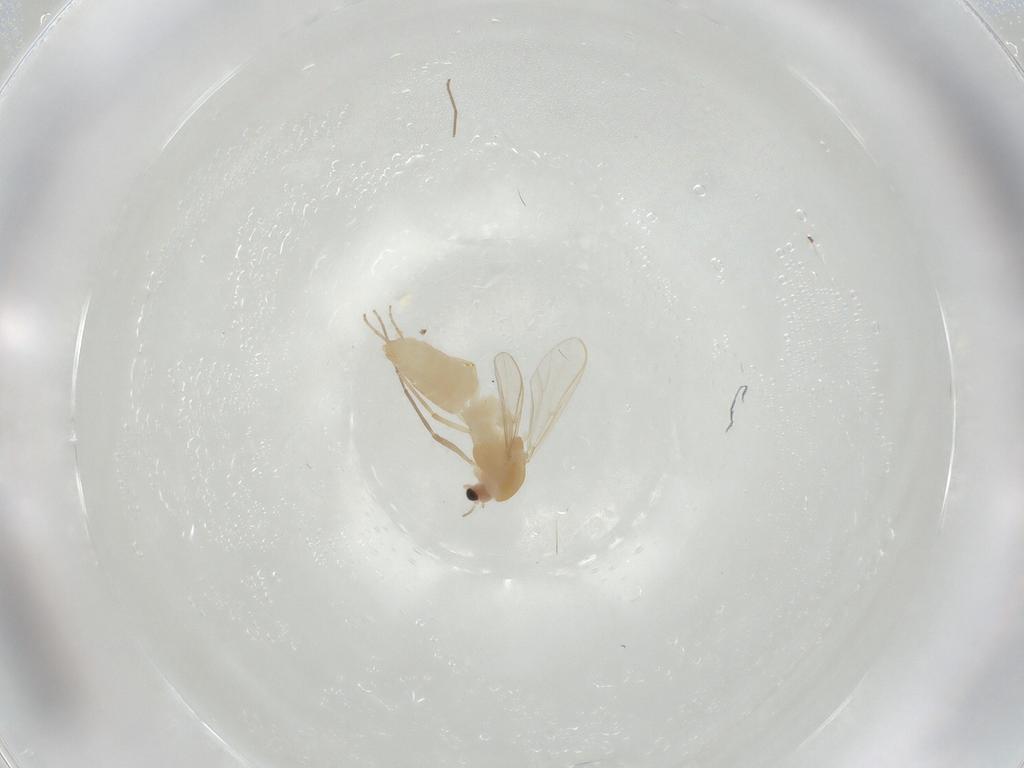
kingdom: Animalia
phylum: Arthropoda
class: Insecta
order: Diptera
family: Chironomidae
